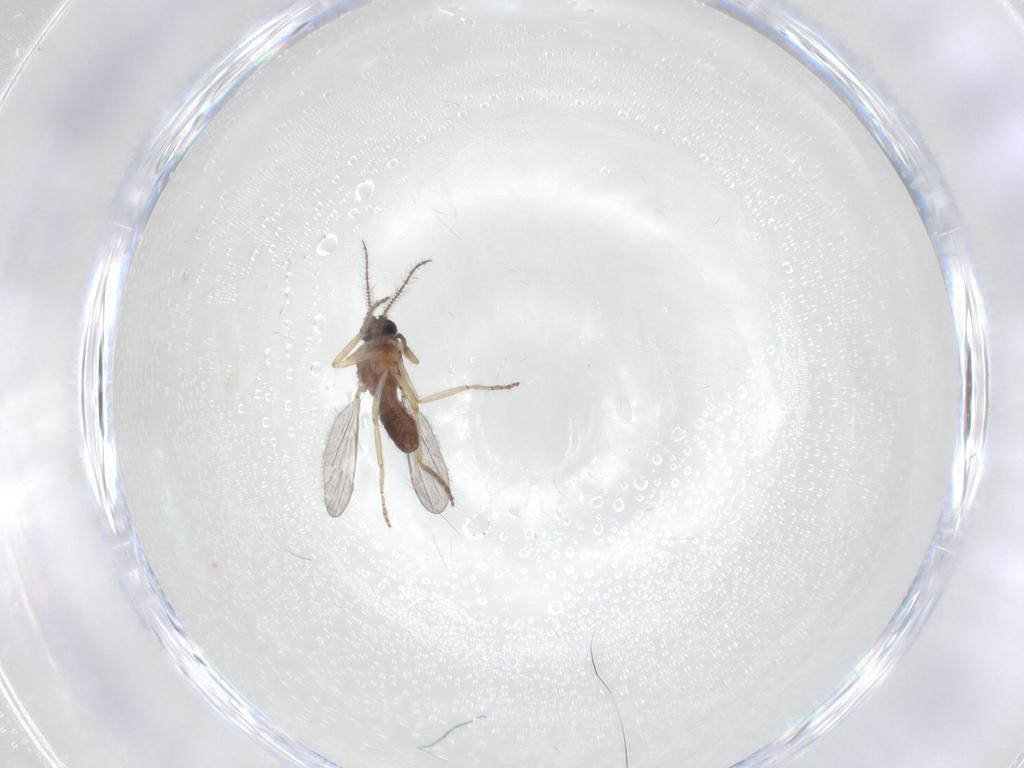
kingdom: Animalia
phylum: Arthropoda
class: Insecta
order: Diptera
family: Ceratopogonidae
